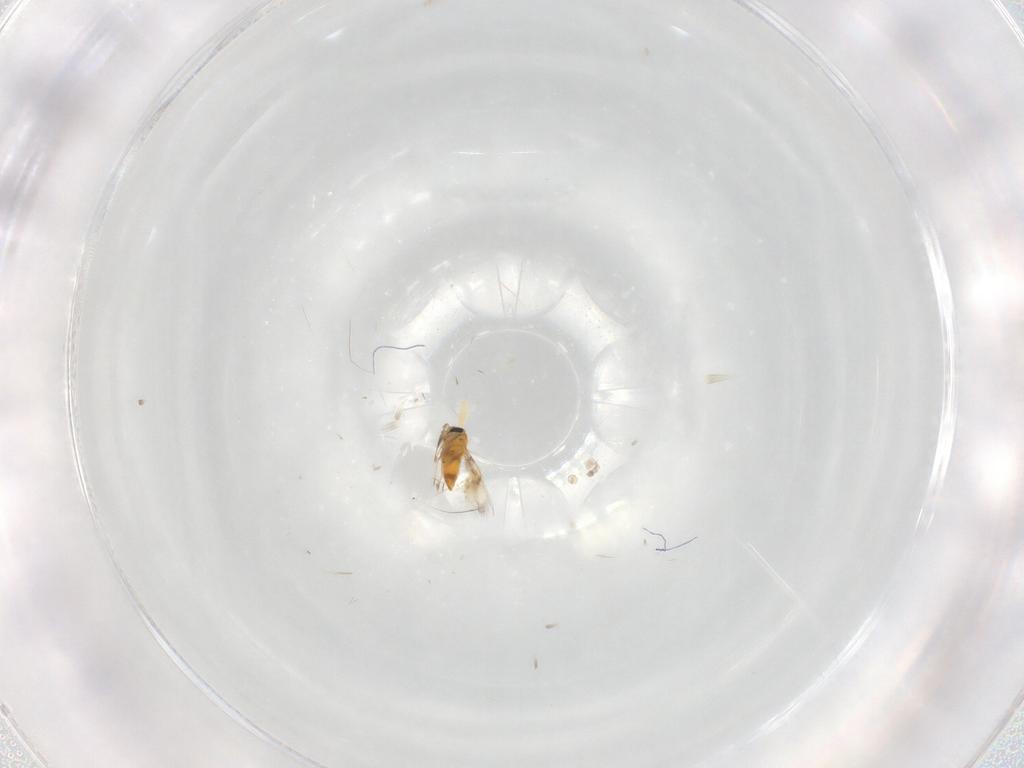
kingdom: Animalia
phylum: Arthropoda
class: Insecta
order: Hymenoptera
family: Aphelinidae
